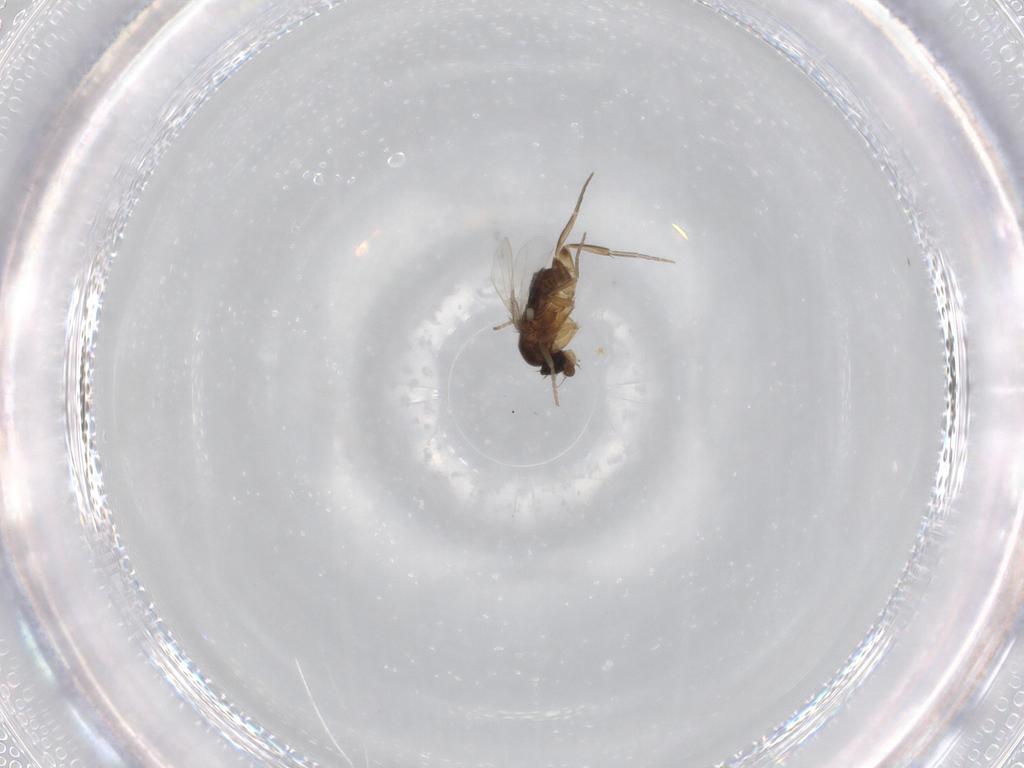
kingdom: Animalia
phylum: Arthropoda
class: Insecta
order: Diptera
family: Phoridae
